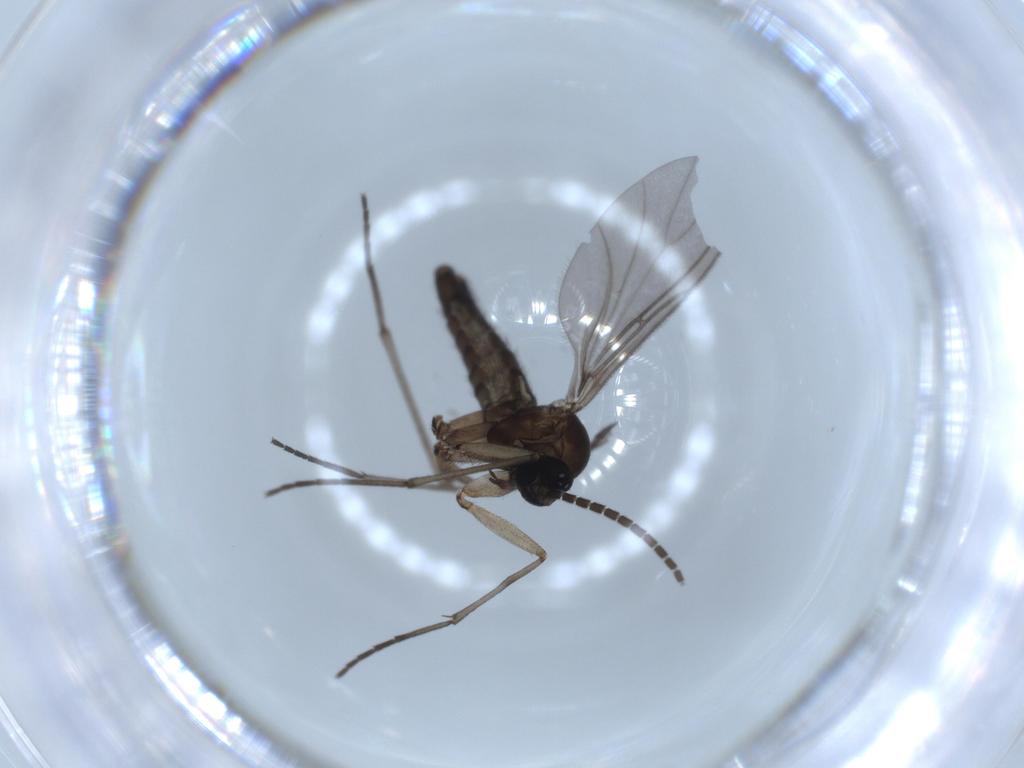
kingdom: Animalia
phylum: Arthropoda
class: Insecta
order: Diptera
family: Sciaridae
